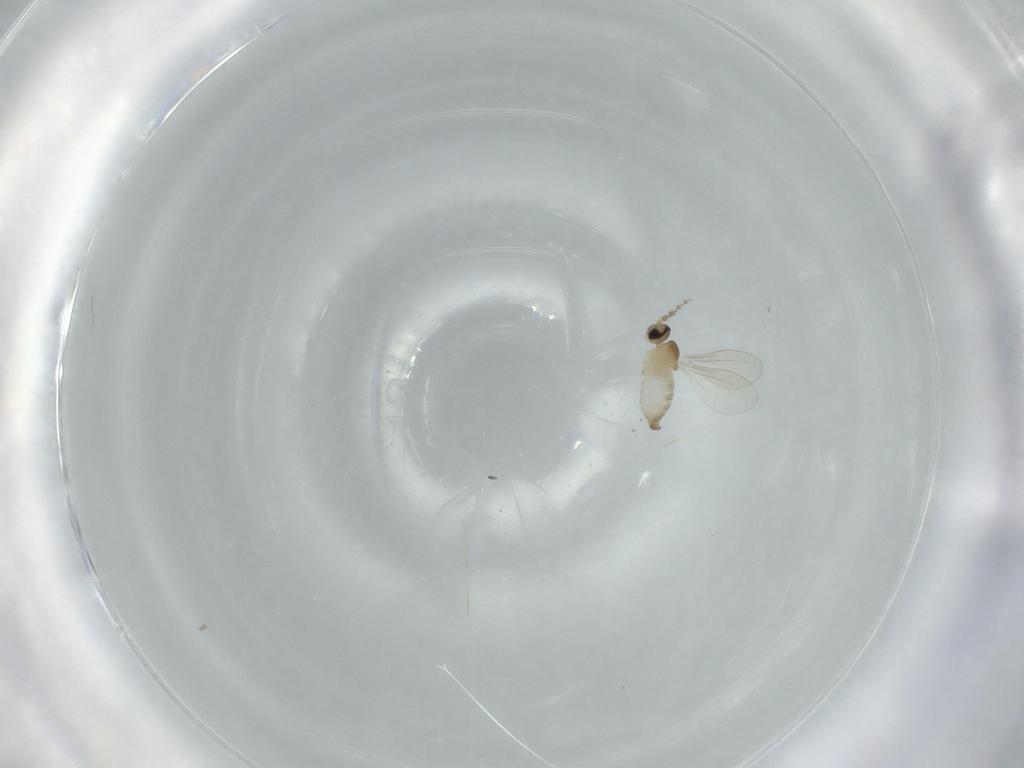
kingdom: Animalia
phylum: Arthropoda
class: Insecta
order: Diptera
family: Cecidomyiidae
